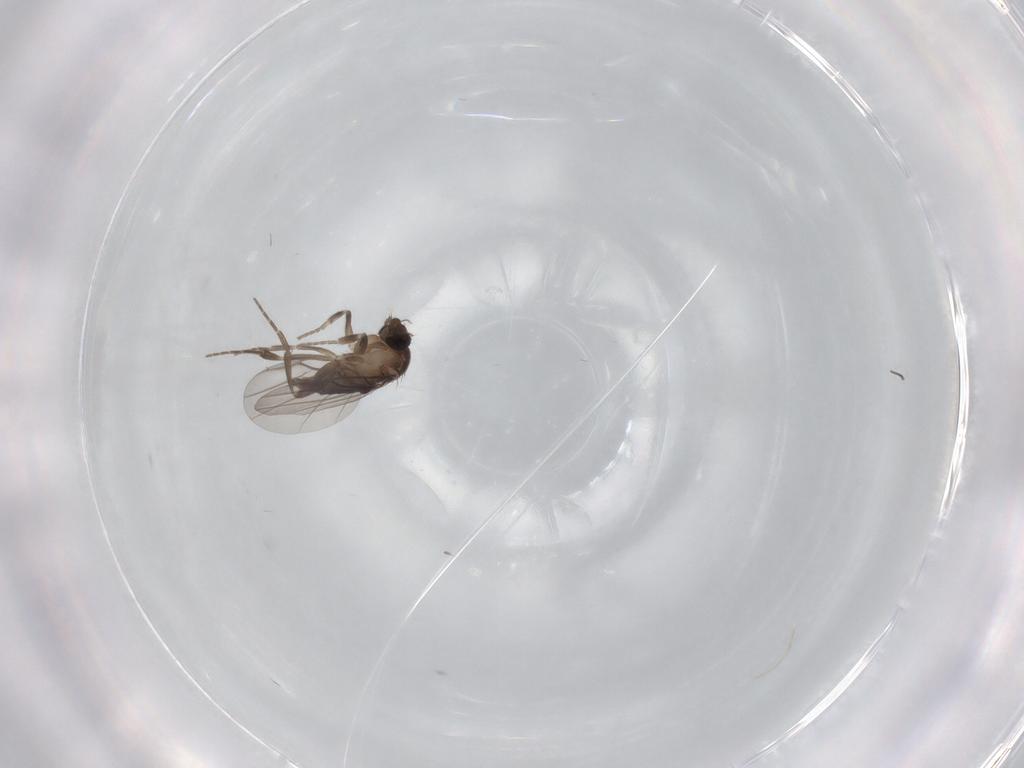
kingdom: Animalia
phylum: Arthropoda
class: Insecta
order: Diptera
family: Cecidomyiidae
